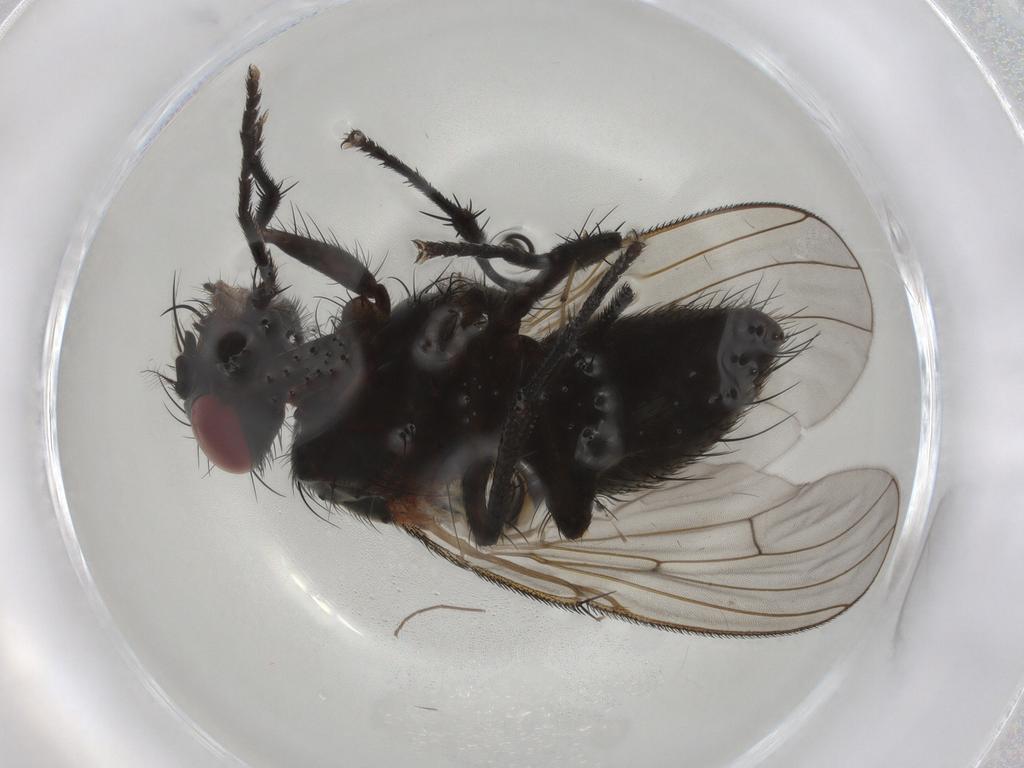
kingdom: Animalia
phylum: Arthropoda
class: Insecta
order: Diptera
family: Muscidae
